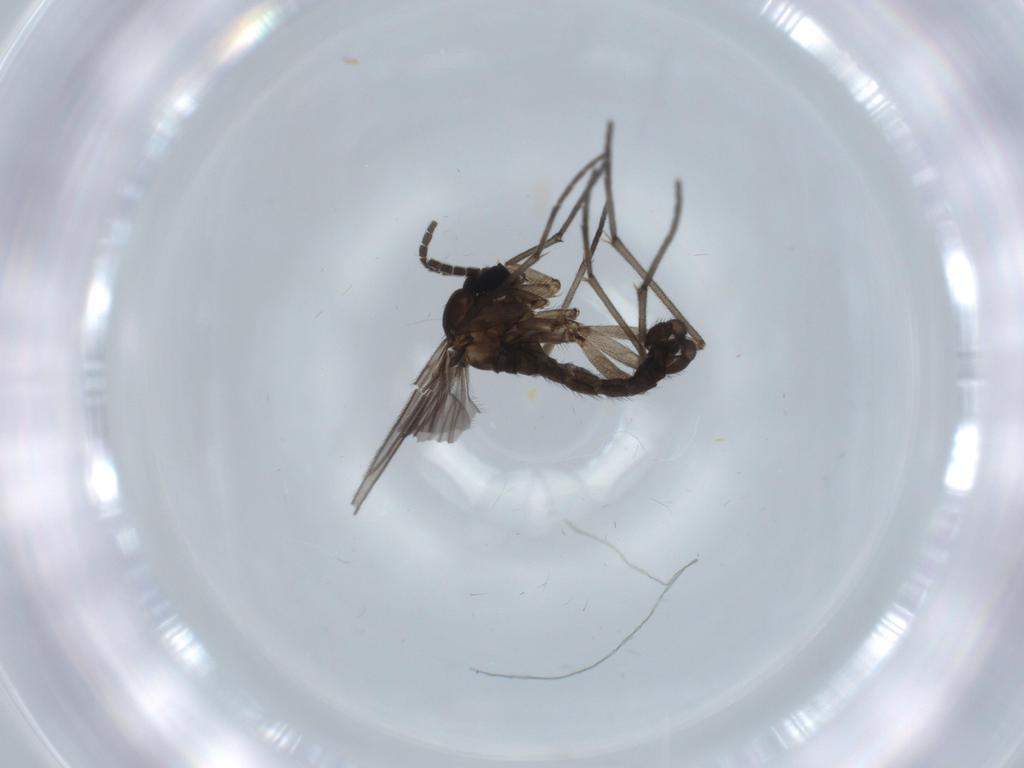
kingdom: Animalia
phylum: Arthropoda
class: Insecta
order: Diptera
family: Sciaridae
